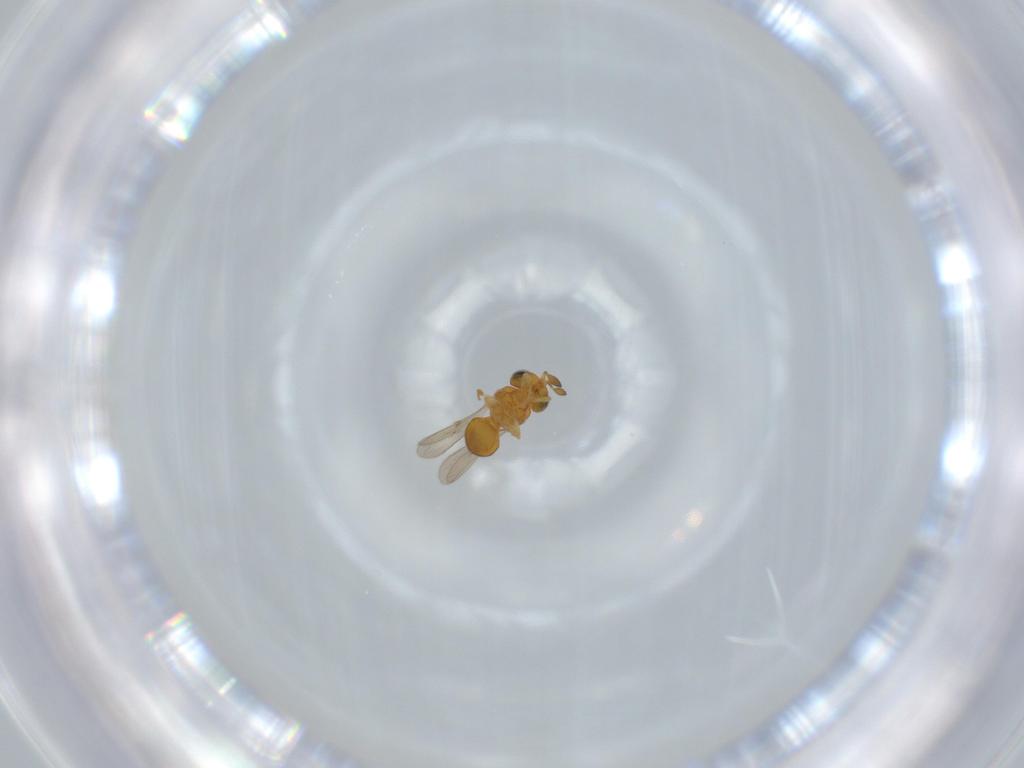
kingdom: Animalia
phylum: Arthropoda
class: Insecta
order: Hymenoptera
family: Scelionidae
